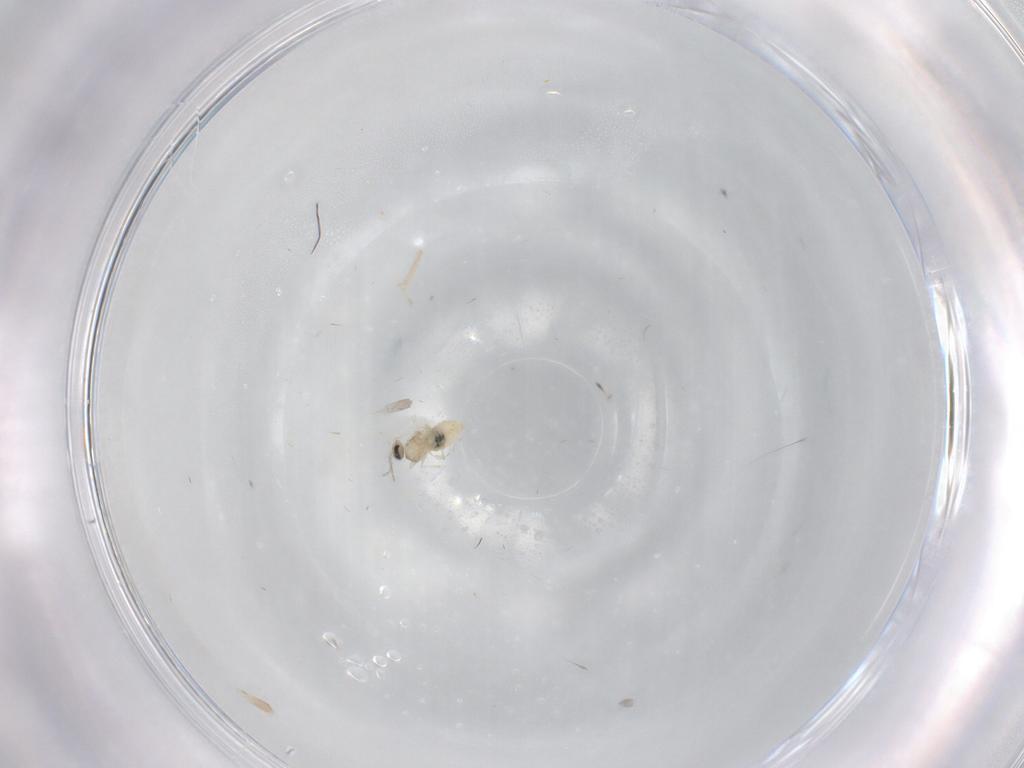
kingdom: Animalia
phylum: Arthropoda
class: Insecta
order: Diptera
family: Cecidomyiidae
